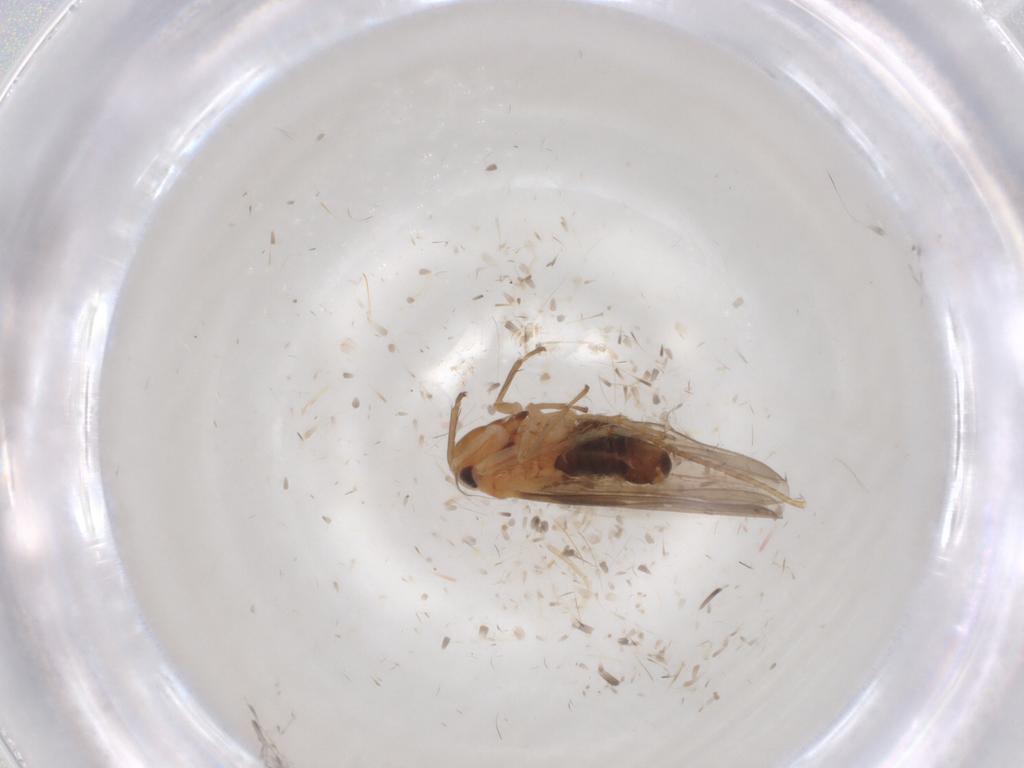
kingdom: Animalia
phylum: Arthropoda
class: Insecta
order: Hemiptera
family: Cicadellidae
